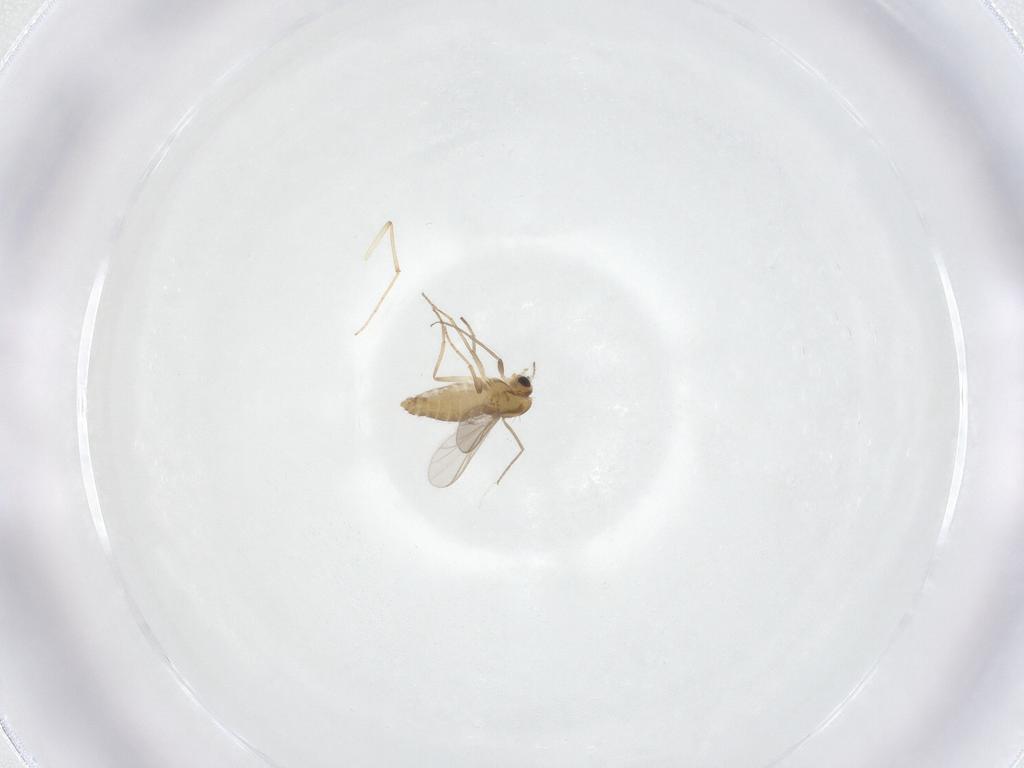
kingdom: Animalia
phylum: Arthropoda
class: Insecta
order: Diptera
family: Chironomidae
